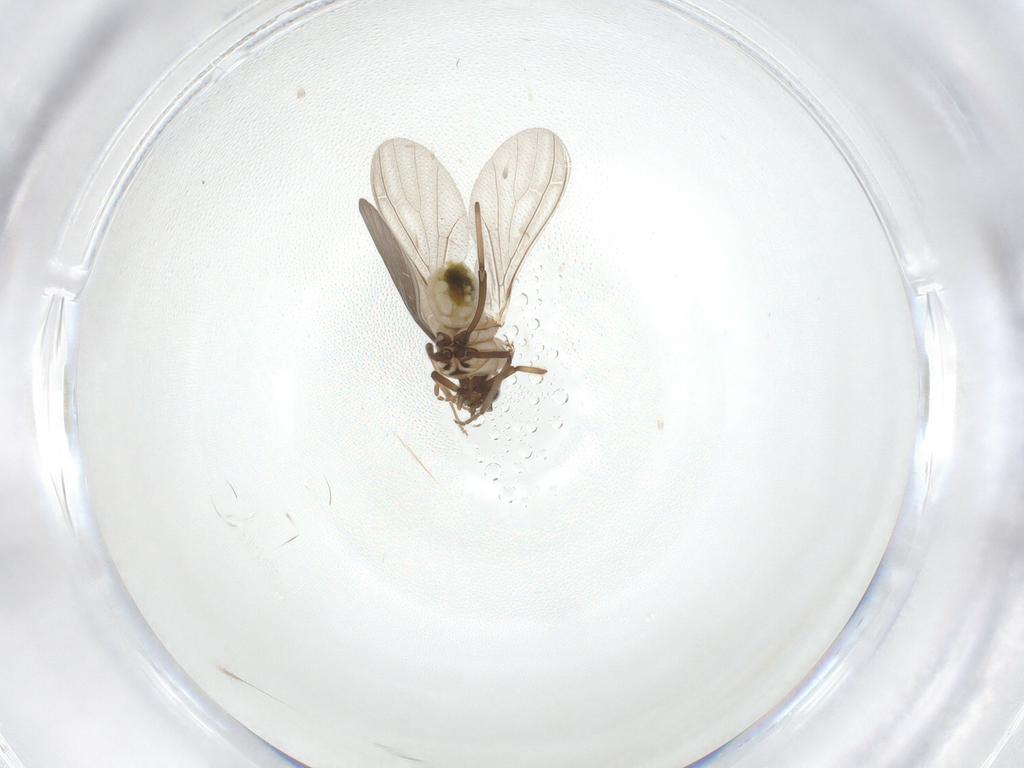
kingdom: Animalia
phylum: Arthropoda
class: Insecta
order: Neuroptera
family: Coniopterygidae
